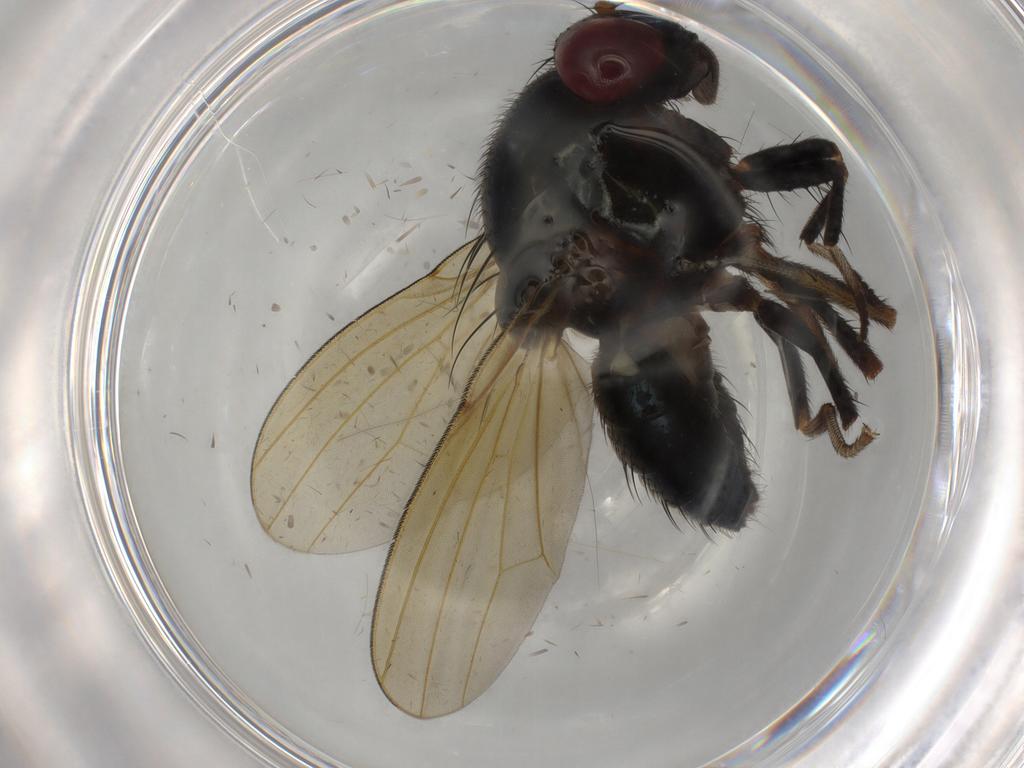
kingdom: Animalia
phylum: Arthropoda
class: Insecta
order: Diptera
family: Ceratopogonidae
